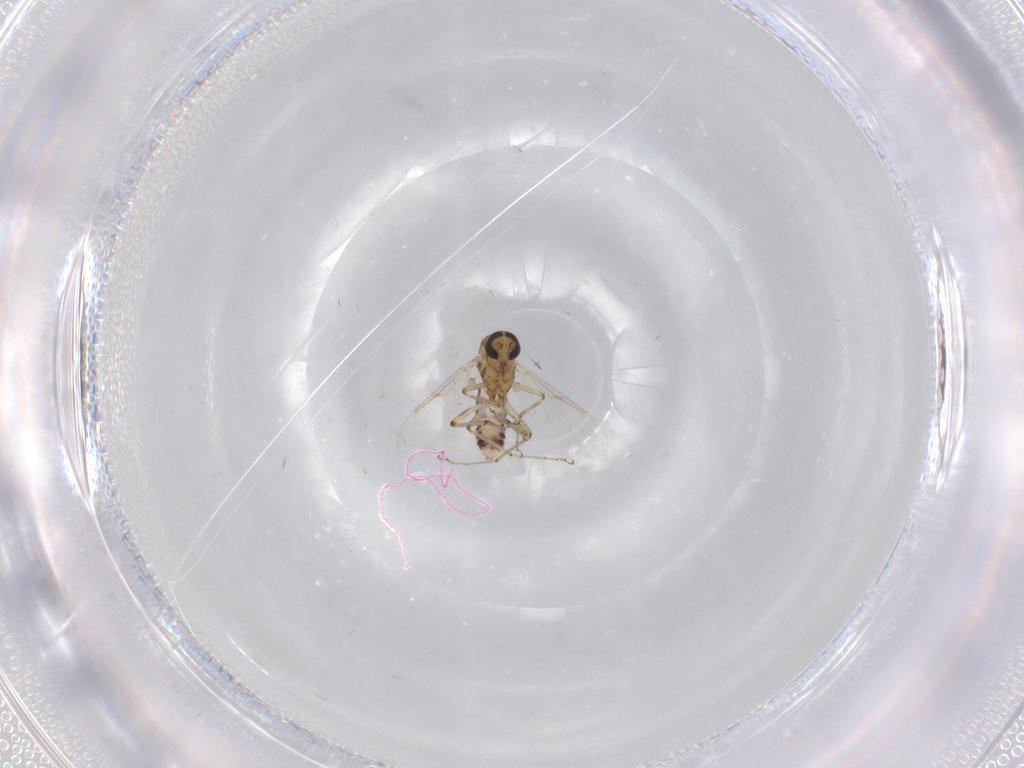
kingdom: Animalia
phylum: Arthropoda
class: Insecta
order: Diptera
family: Ceratopogonidae
